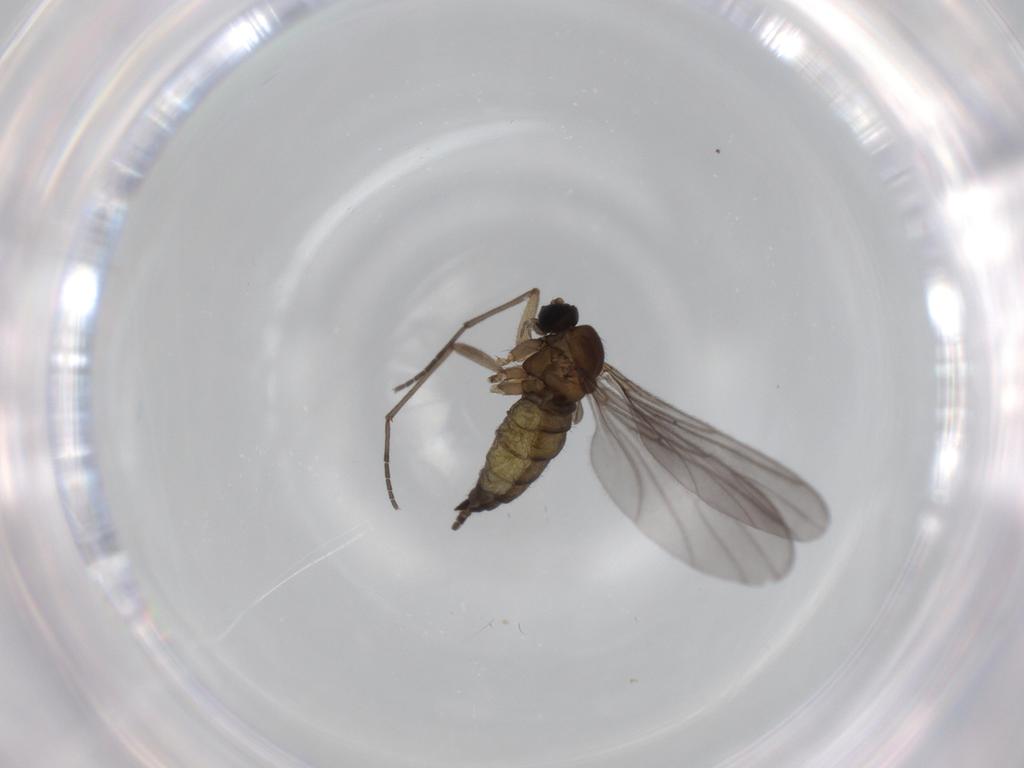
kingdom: Animalia
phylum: Arthropoda
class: Insecta
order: Diptera
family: Sciaridae
